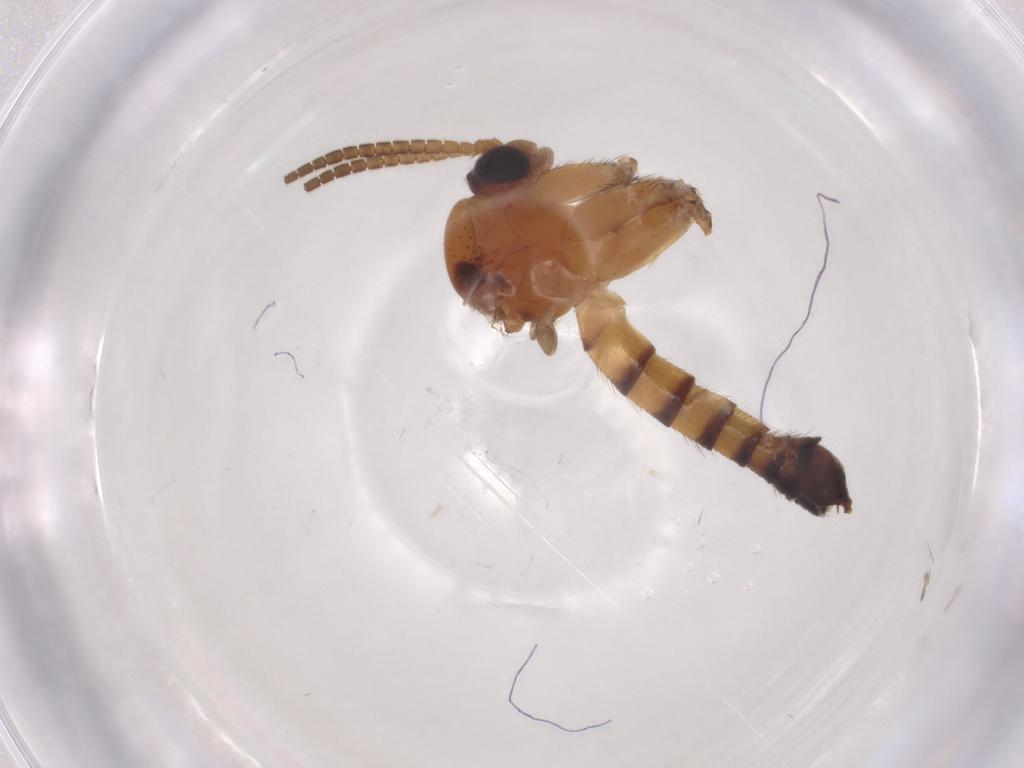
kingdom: Animalia
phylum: Arthropoda
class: Insecta
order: Diptera
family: Mycetophilidae
